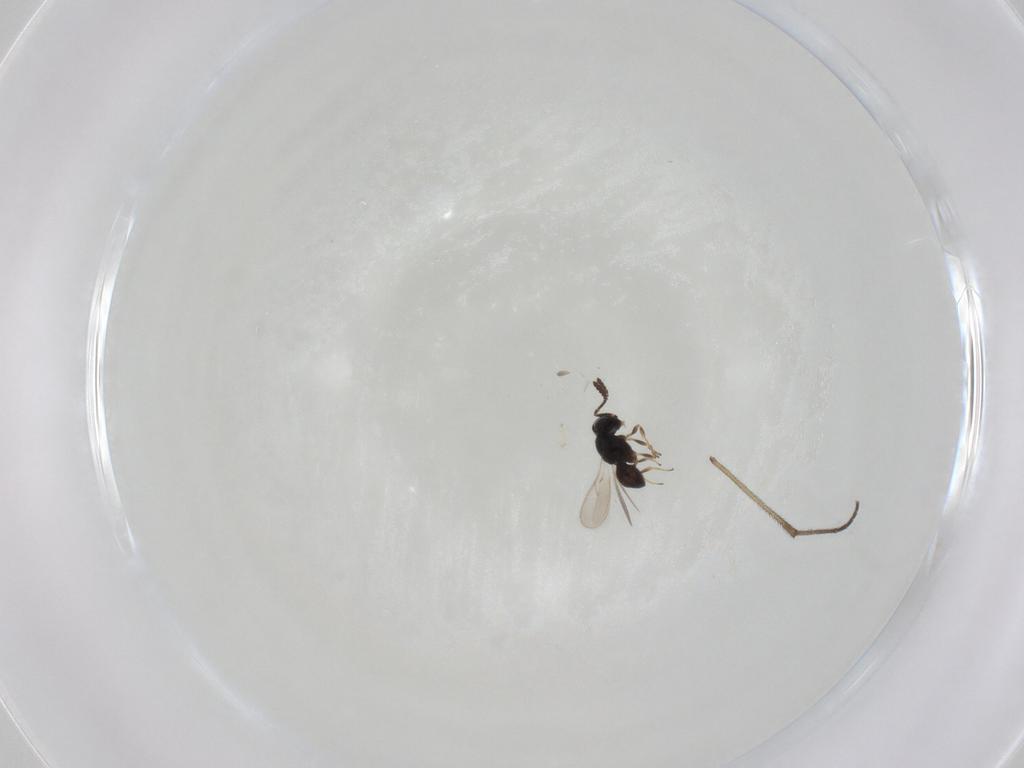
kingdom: Animalia
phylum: Arthropoda
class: Insecta
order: Hymenoptera
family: Scelionidae
